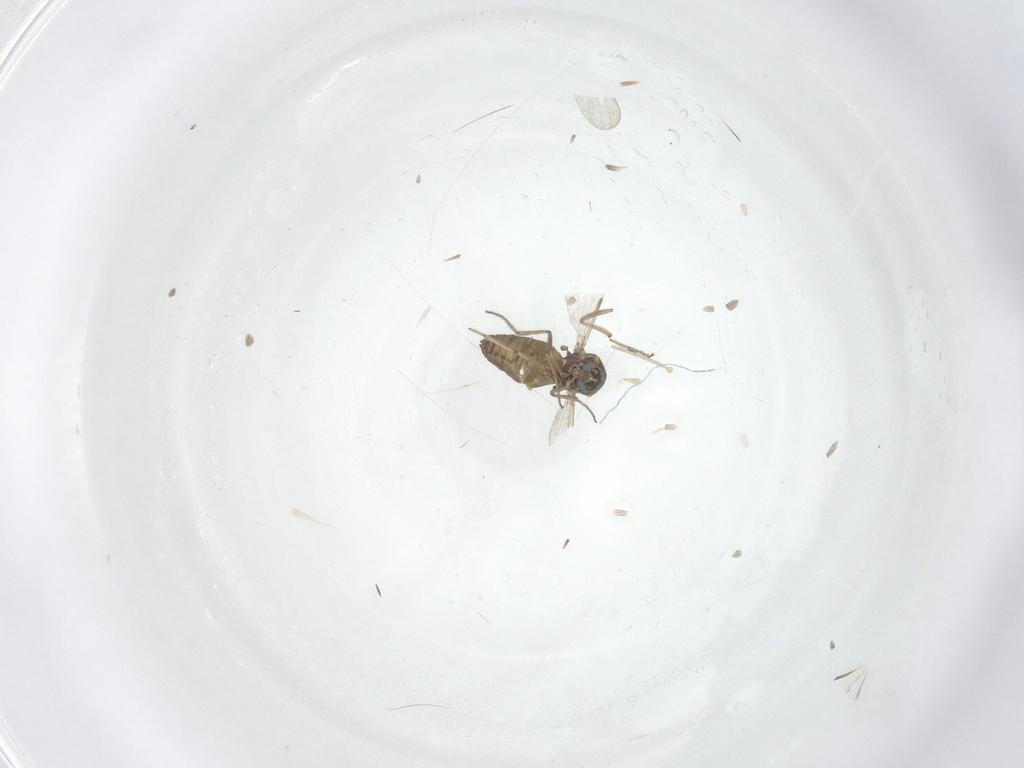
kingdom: Animalia
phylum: Arthropoda
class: Insecta
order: Diptera
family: Ceratopogonidae
